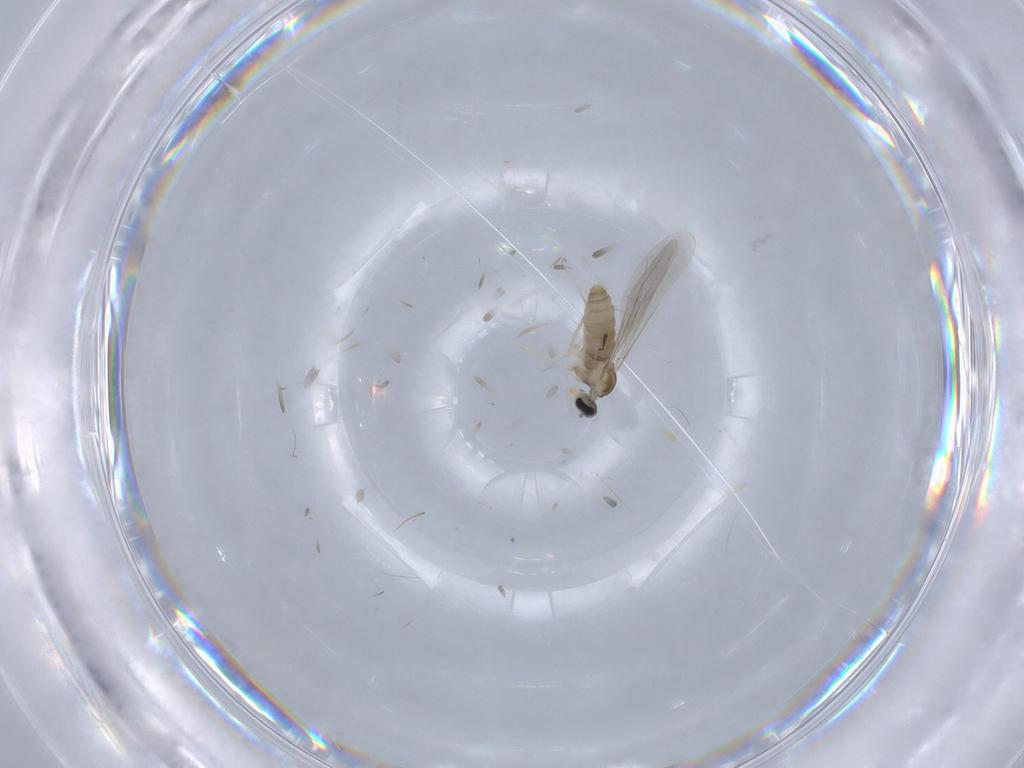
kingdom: Animalia
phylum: Arthropoda
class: Insecta
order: Diptera
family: Cecidomyiidae
